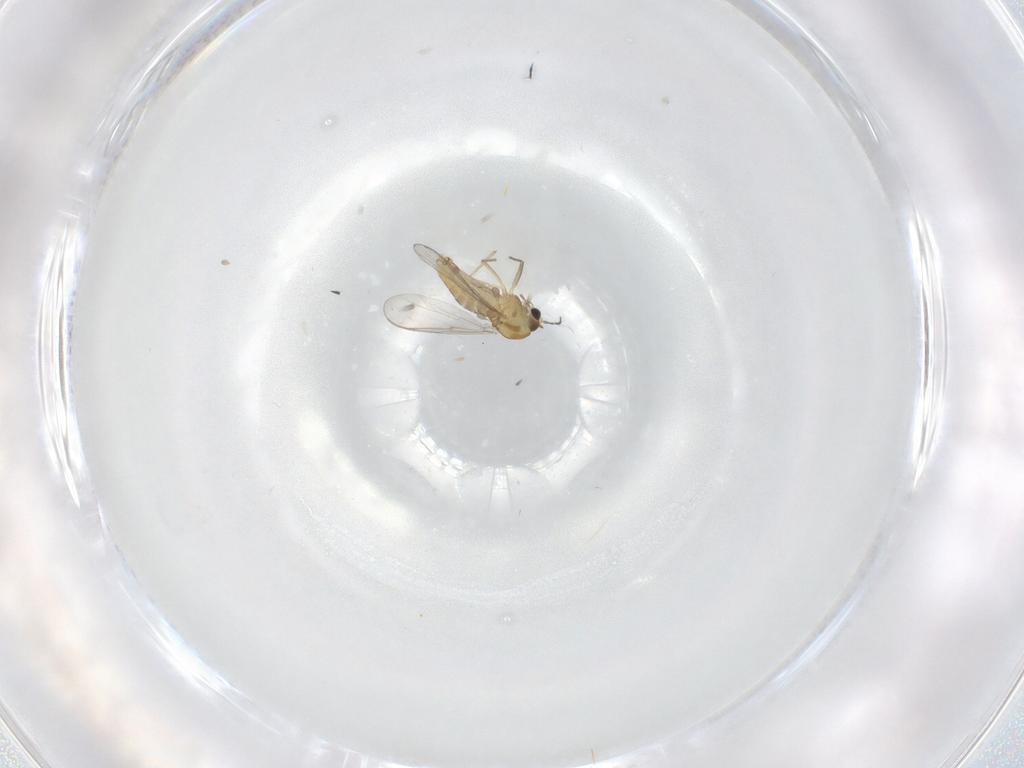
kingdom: Animalia
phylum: Arthropoda
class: Insecta
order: Diptera
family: Chironomidae
